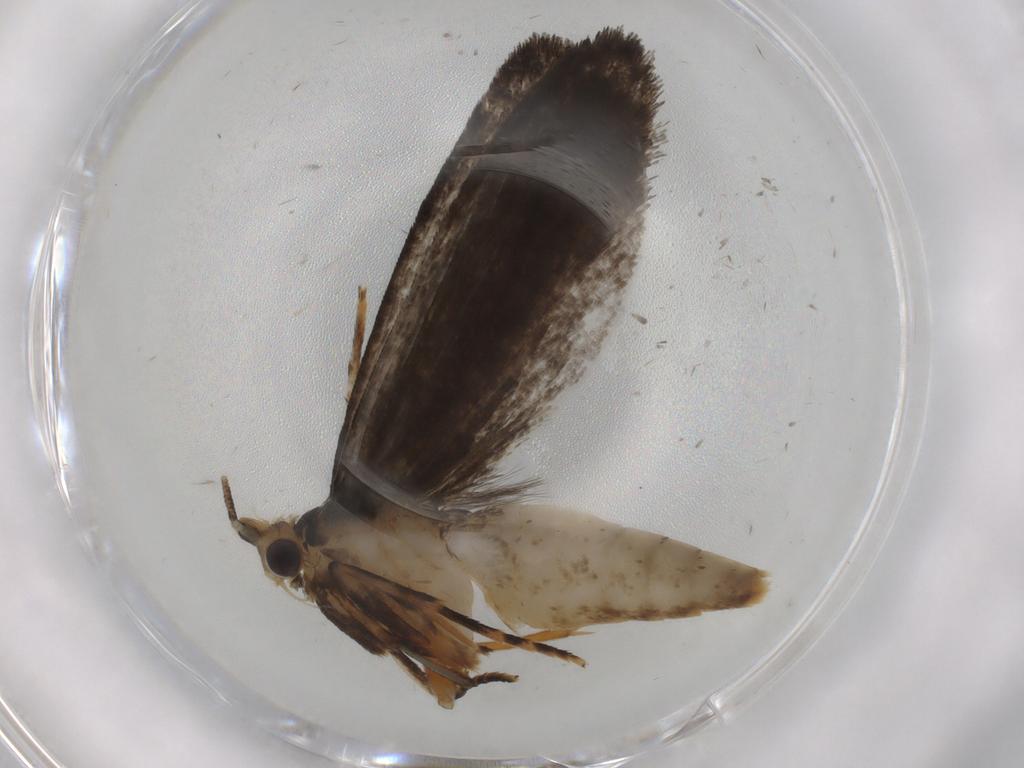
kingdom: Animalia
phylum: Arthropoda
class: Insecta
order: Lepidoptera
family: Tineidae
